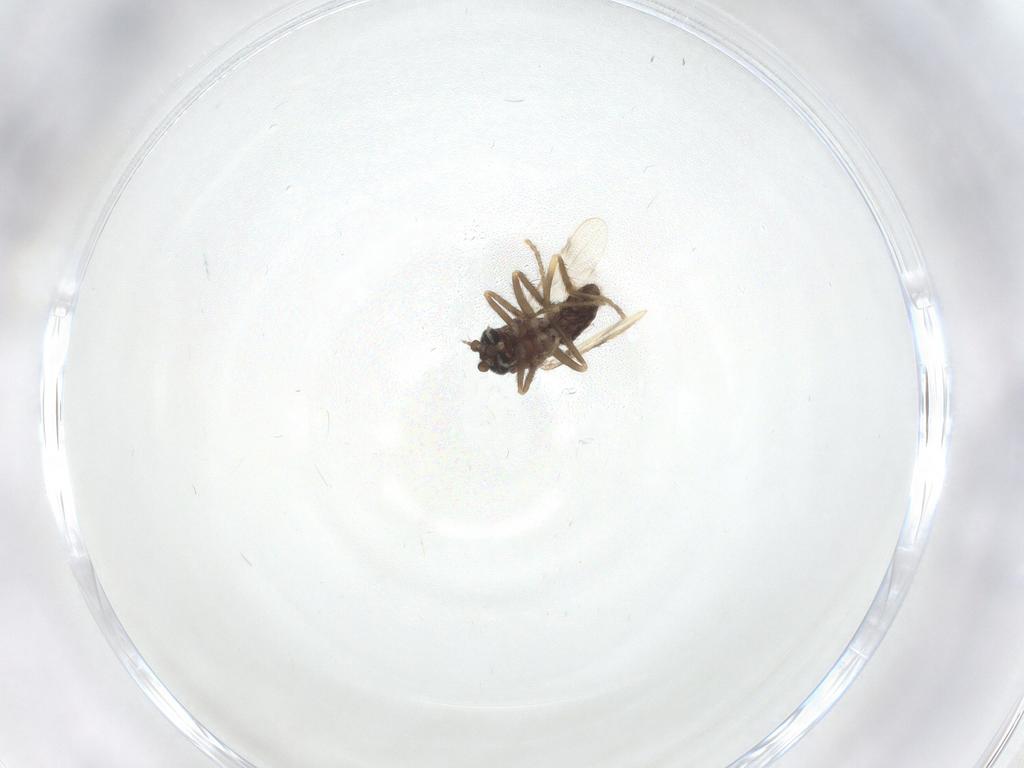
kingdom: Animalia
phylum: Arthropoda
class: Insecta
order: Diptera
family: Corethrellidae
